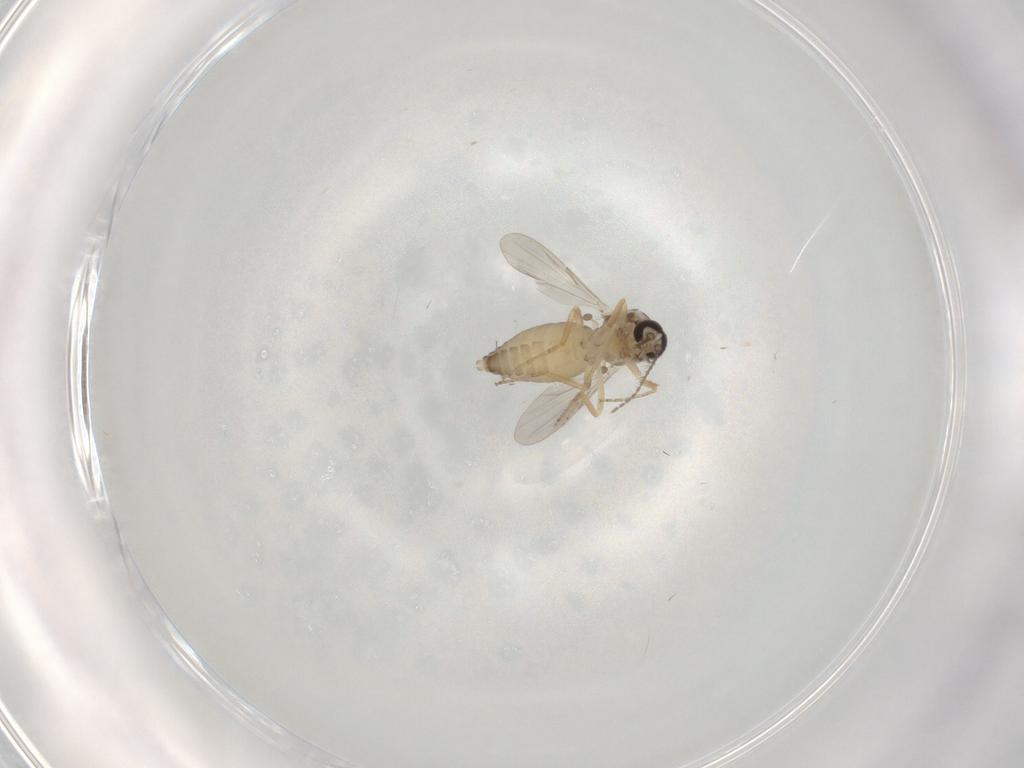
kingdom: Animalia
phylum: Arthropoda
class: Insecta
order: Diptera
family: Ceratopogonidae
